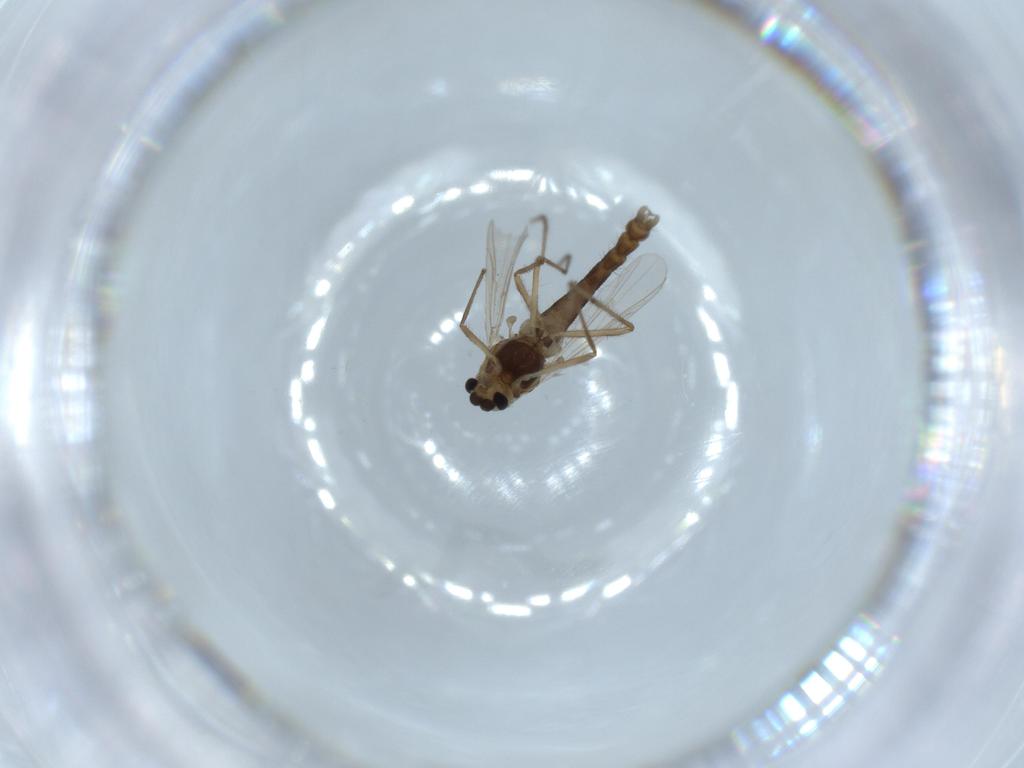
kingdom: Animalia
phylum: Arthropoda
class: Insecta
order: Diptera
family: Chironomidae
